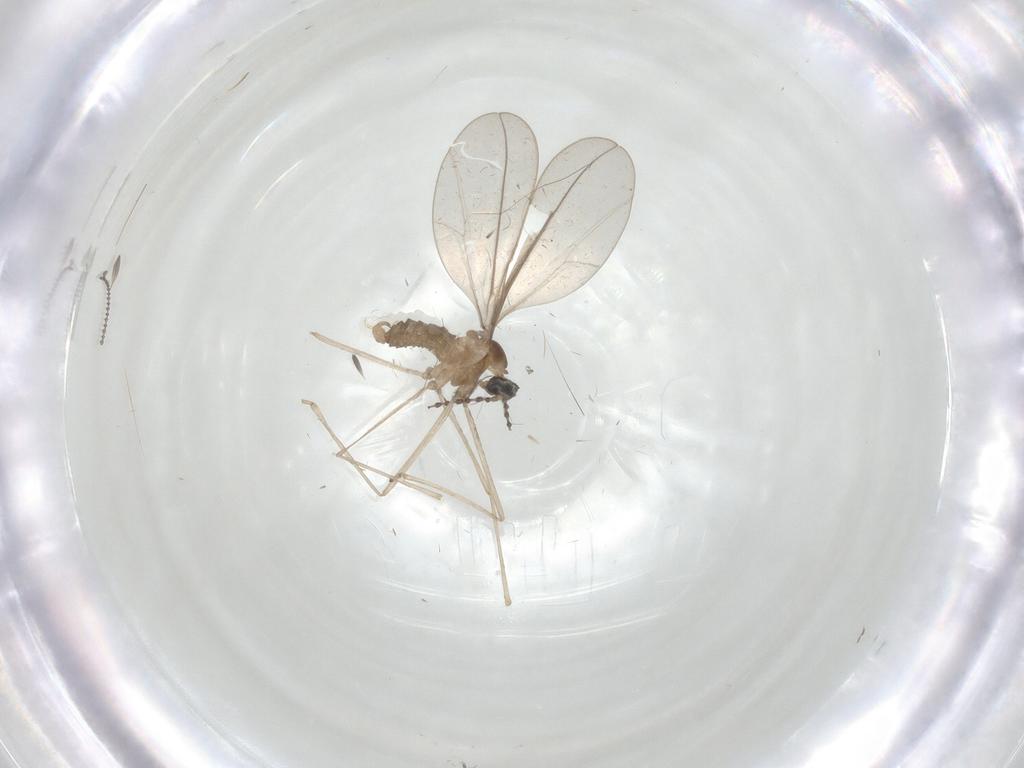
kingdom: Animalia
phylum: Arthropoda
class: Insecta
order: Diptera
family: Cecidomyiidae
